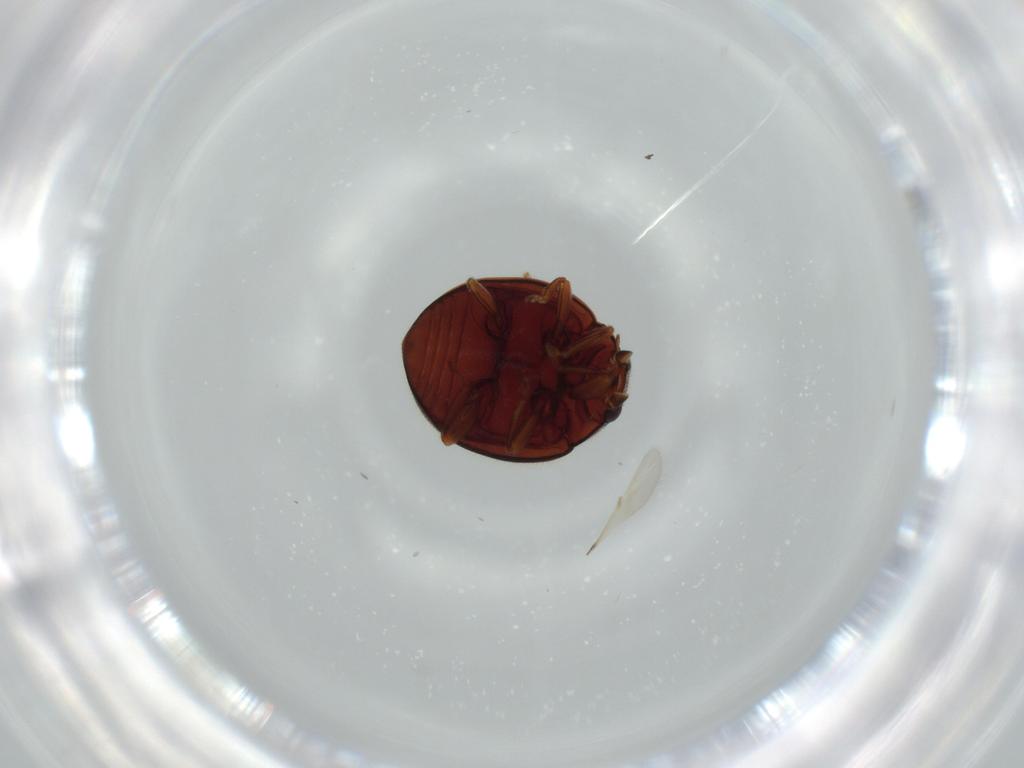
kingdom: Animalia
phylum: Arthropoda
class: Insecta
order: Coleoptera
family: Coccinellidae
